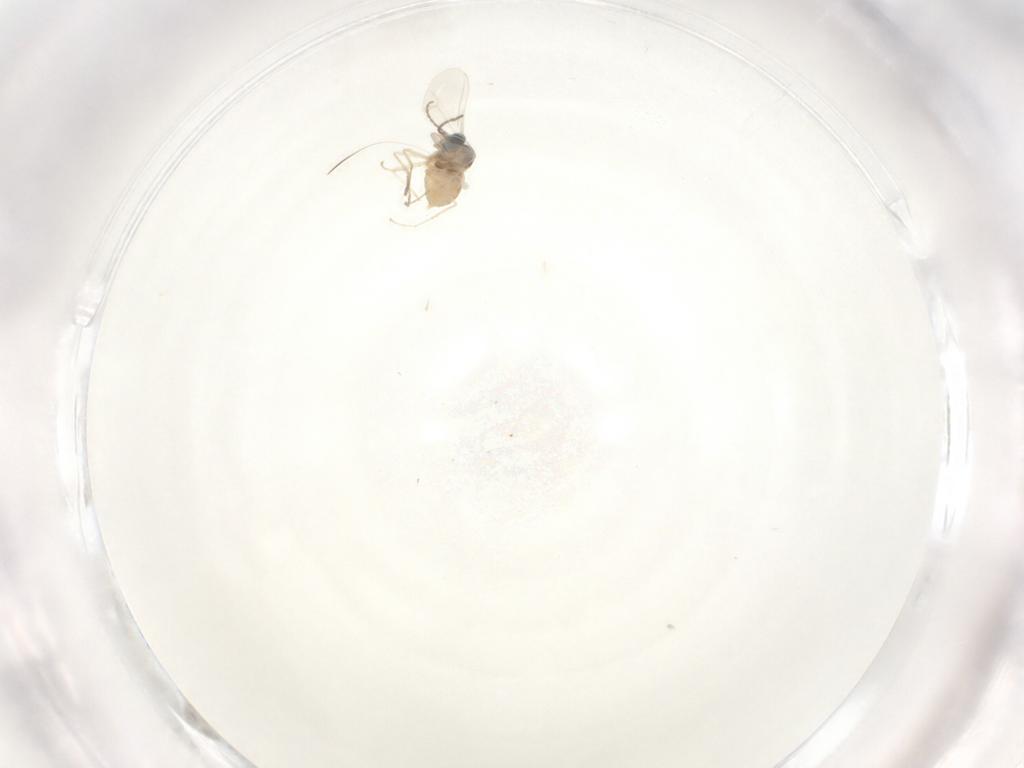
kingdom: Animalia
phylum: Arthropoda
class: Insecta
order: Diptera
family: Cecidomyiidae
